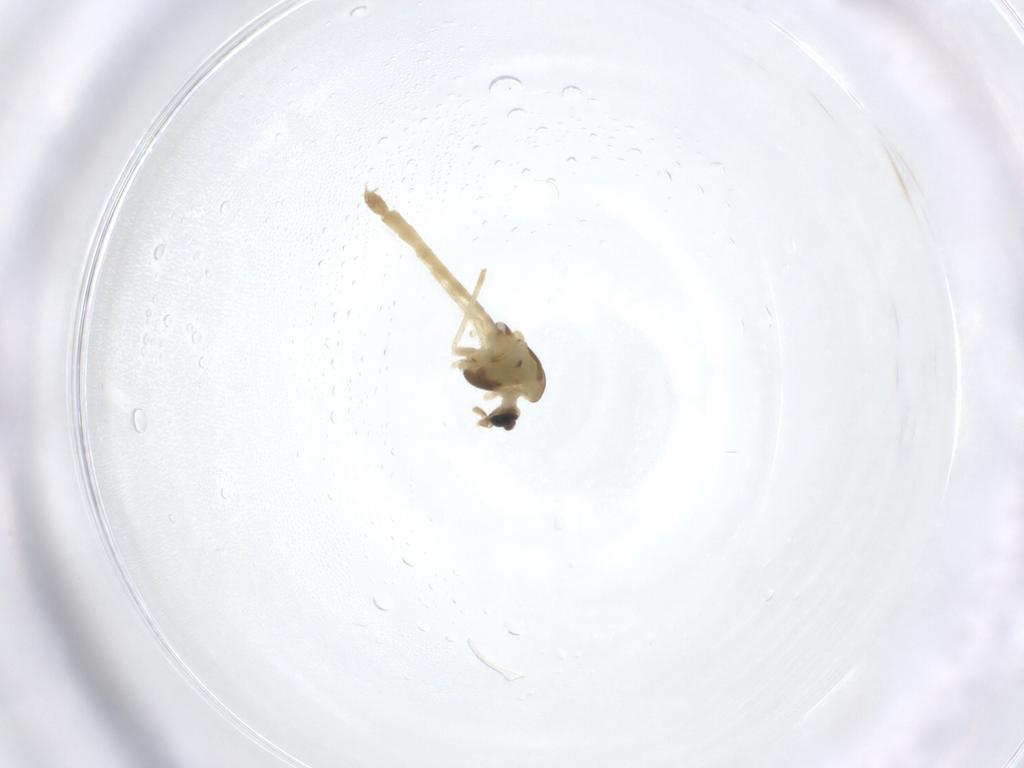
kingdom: Animalia
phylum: Arthropoda
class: Insecta
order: Diptera
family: Chironomidae
